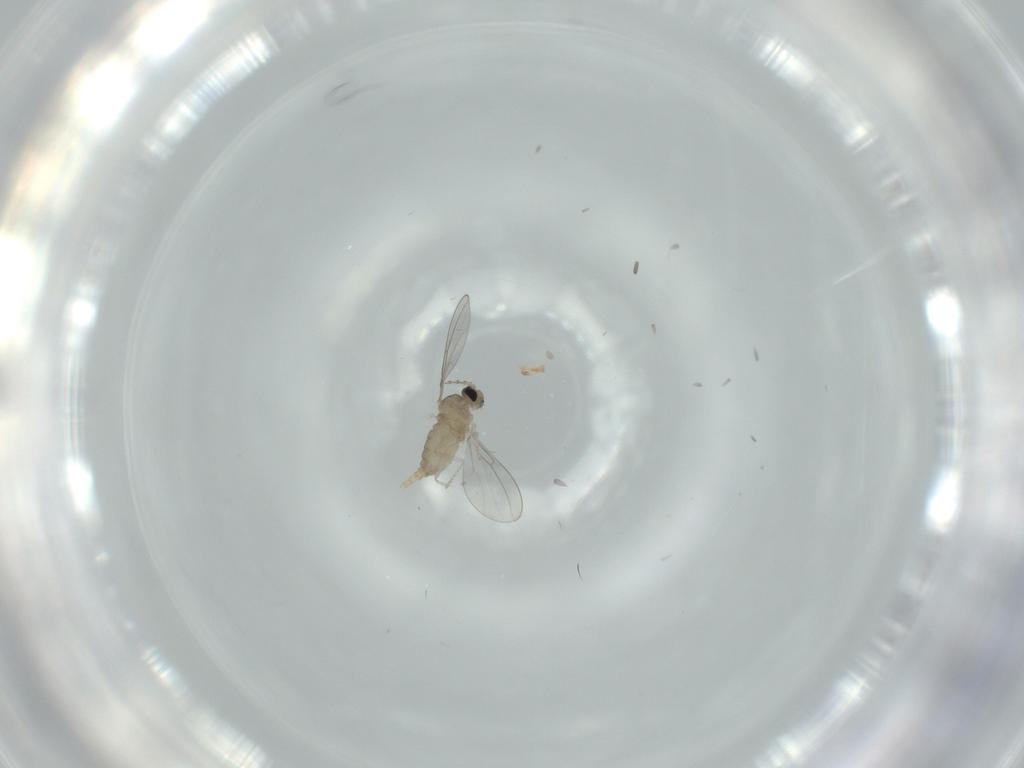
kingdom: Animalia
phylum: Arthropoda
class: Insecta
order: Diptera
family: Cecidomyiidae
